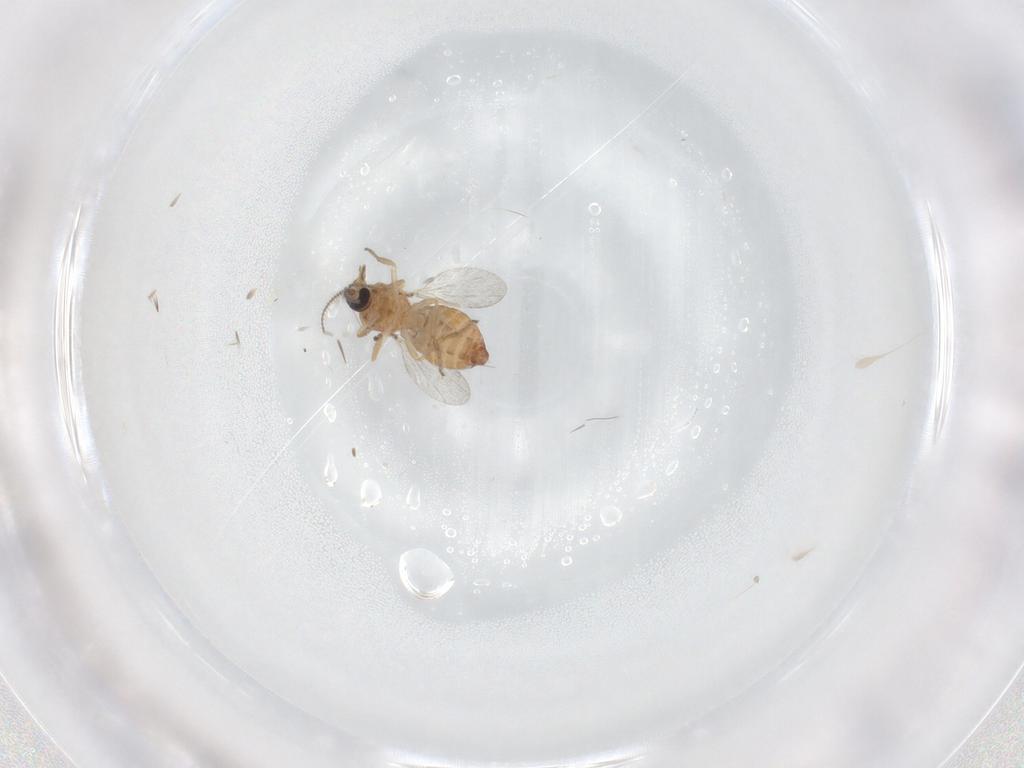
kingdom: Animalia
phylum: Arthropoda
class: Insecta
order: Diptera
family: Ceratopogonidae
